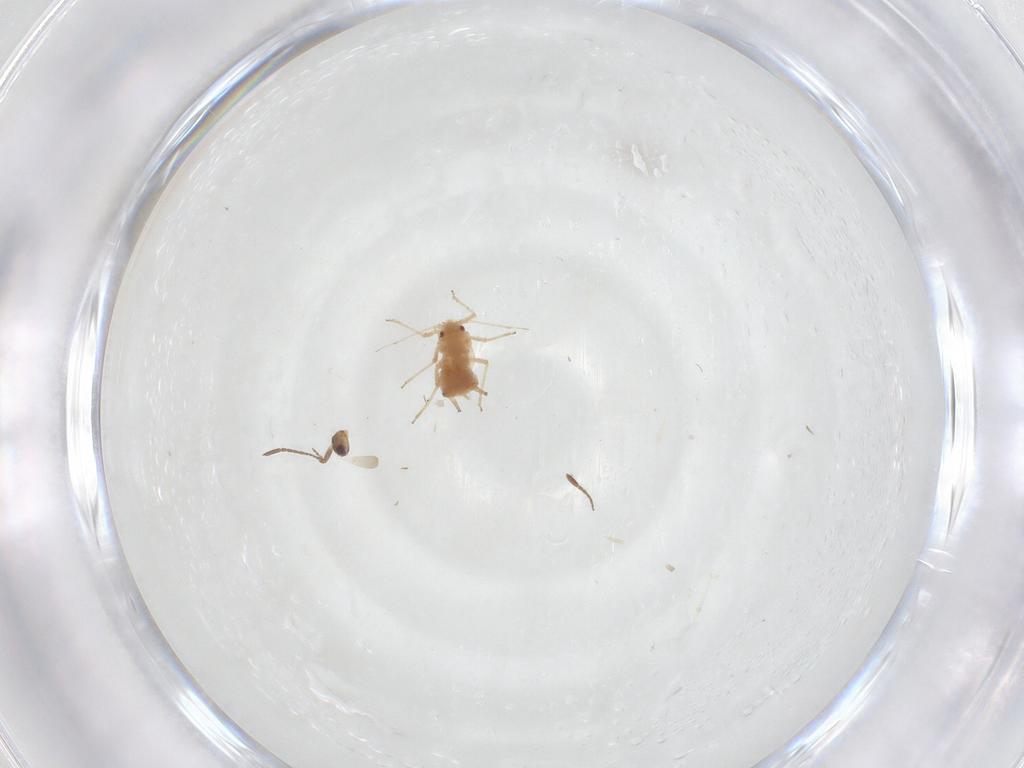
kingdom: Animalia
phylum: Arthropoda
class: Insecta
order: Hemiptera
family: Aphididae
